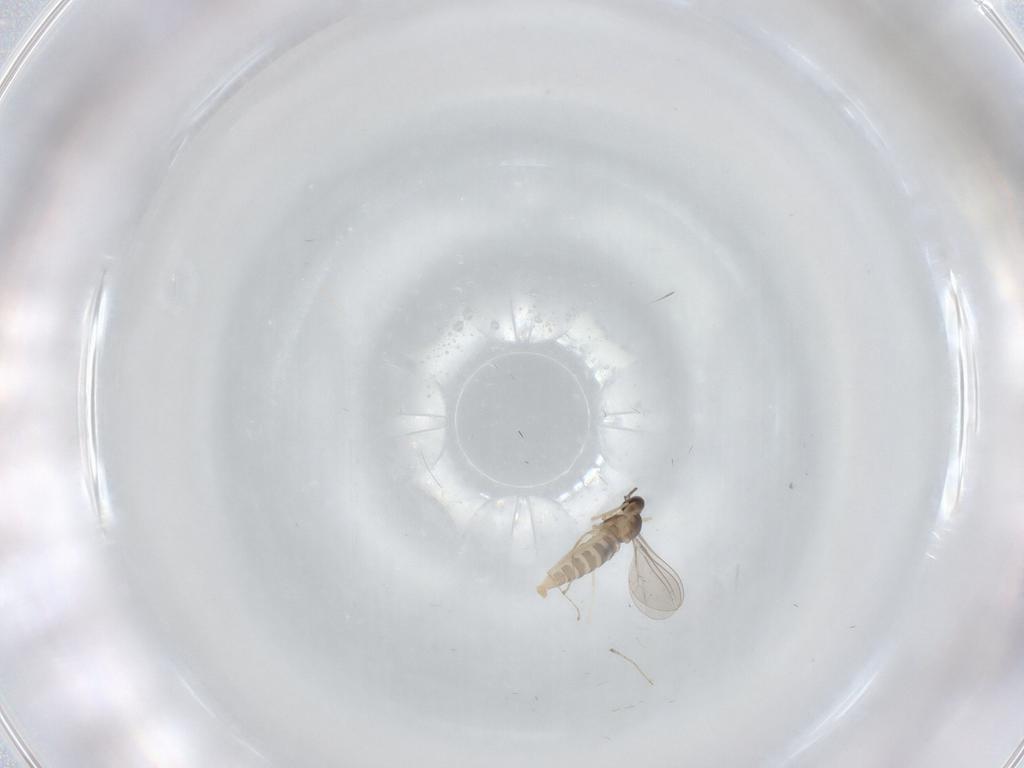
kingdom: Animalia
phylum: Arthropoda
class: Insecta
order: Diptera
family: Cecidomyiidae
